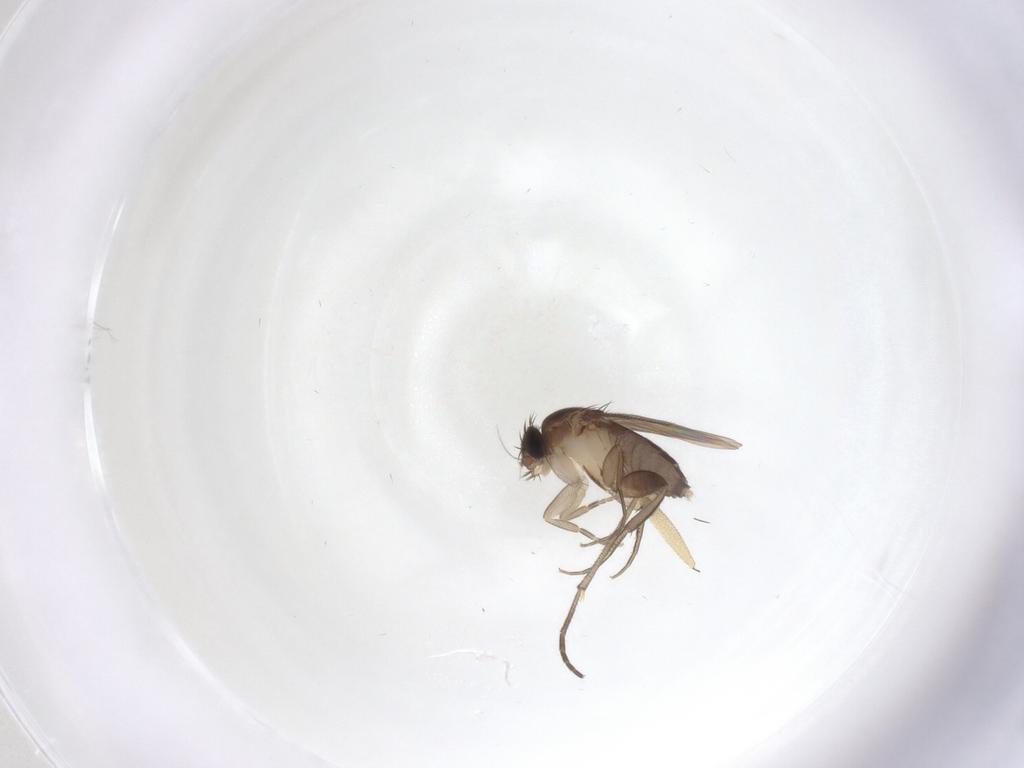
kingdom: Animalia
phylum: Arthropoda
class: Insecta
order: Diptera
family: Phoridae
